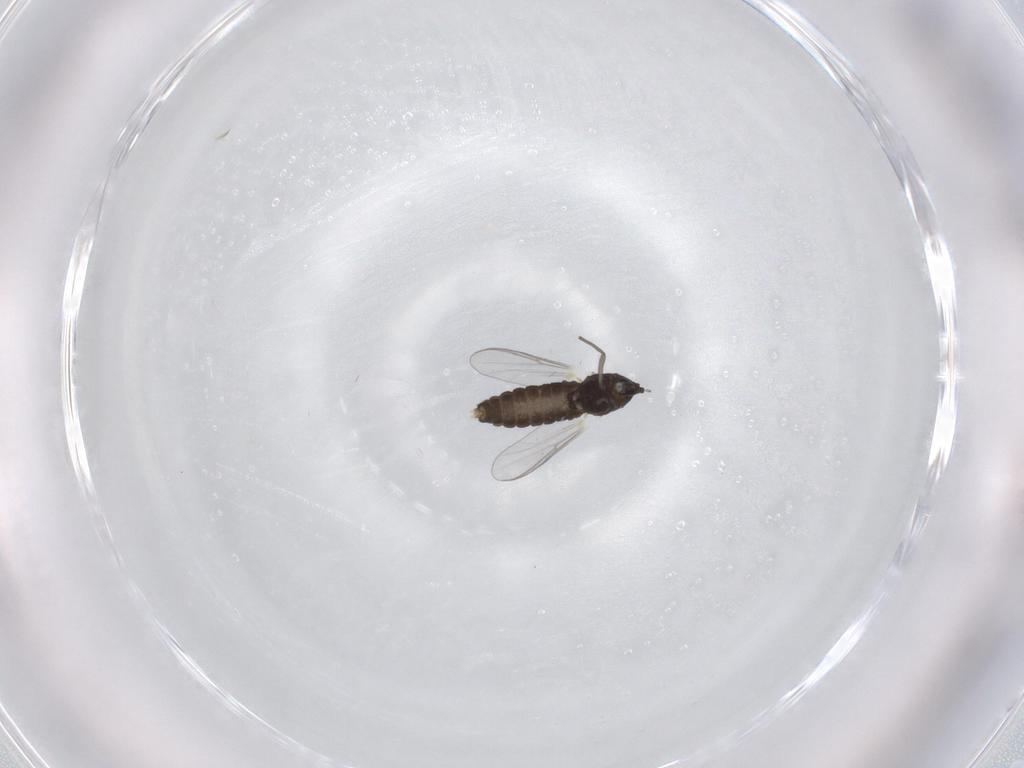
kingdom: Animalia
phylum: Arthropoda
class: Insecta
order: Diptera
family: Chironomidae
